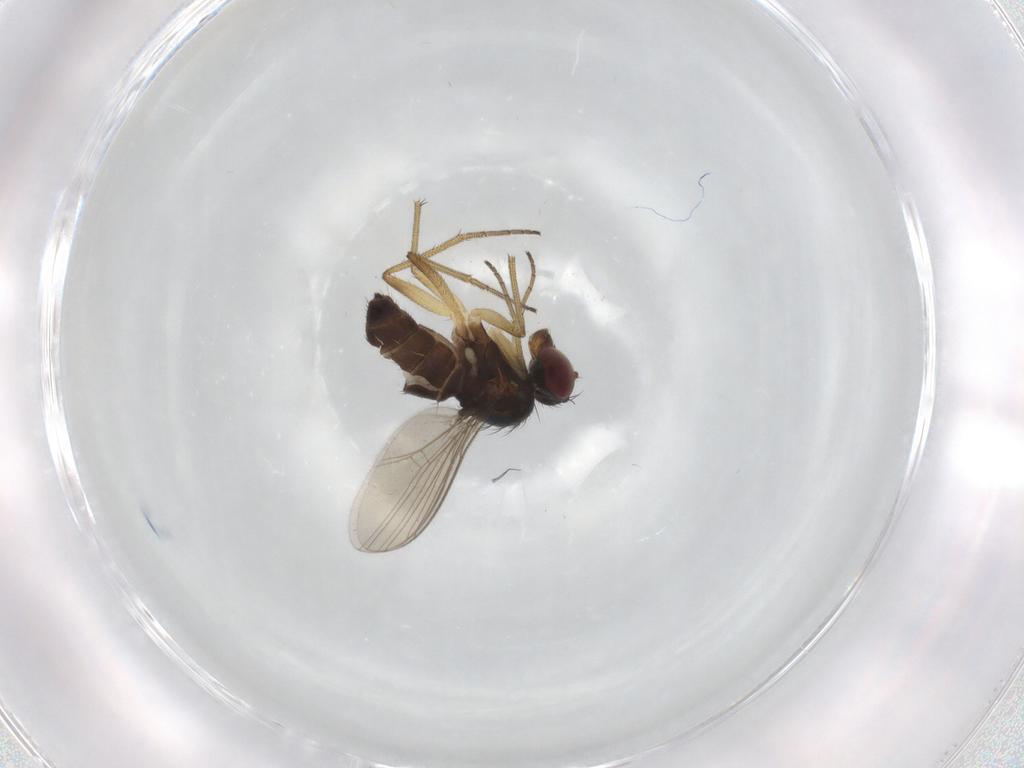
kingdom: Animalia
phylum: Arthropoda
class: Insecta
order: Diptera
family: Dolichopodidae
